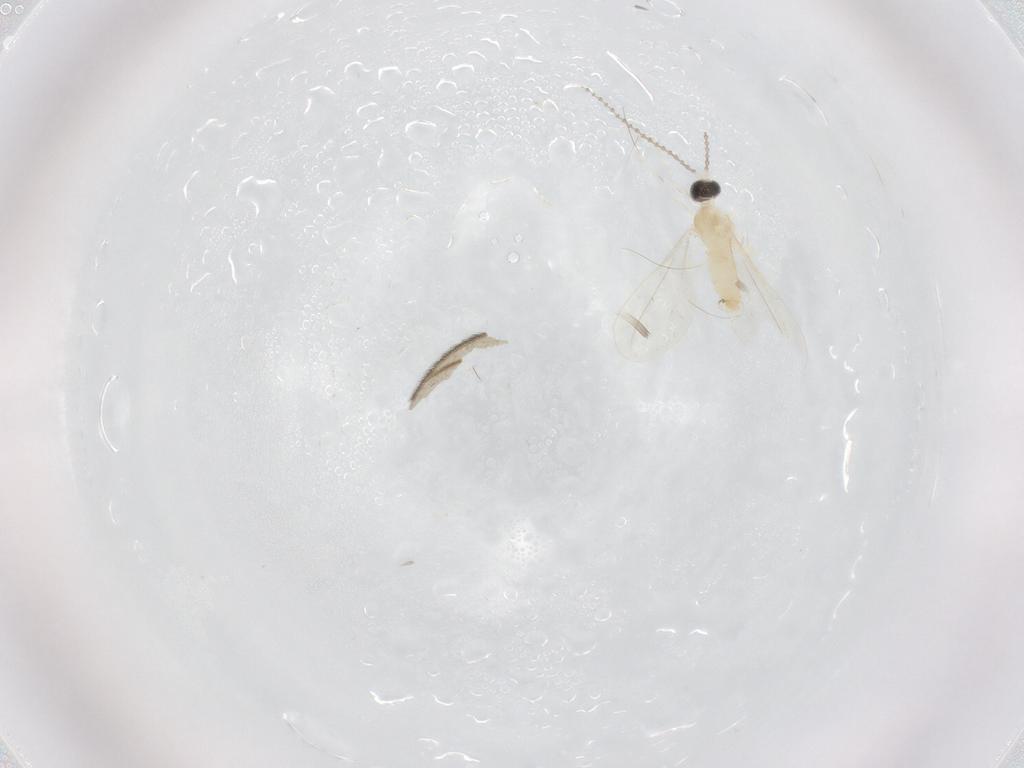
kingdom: Animalia
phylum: Arthropoda
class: Insecta
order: Diptera
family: Cecidomyiidae
